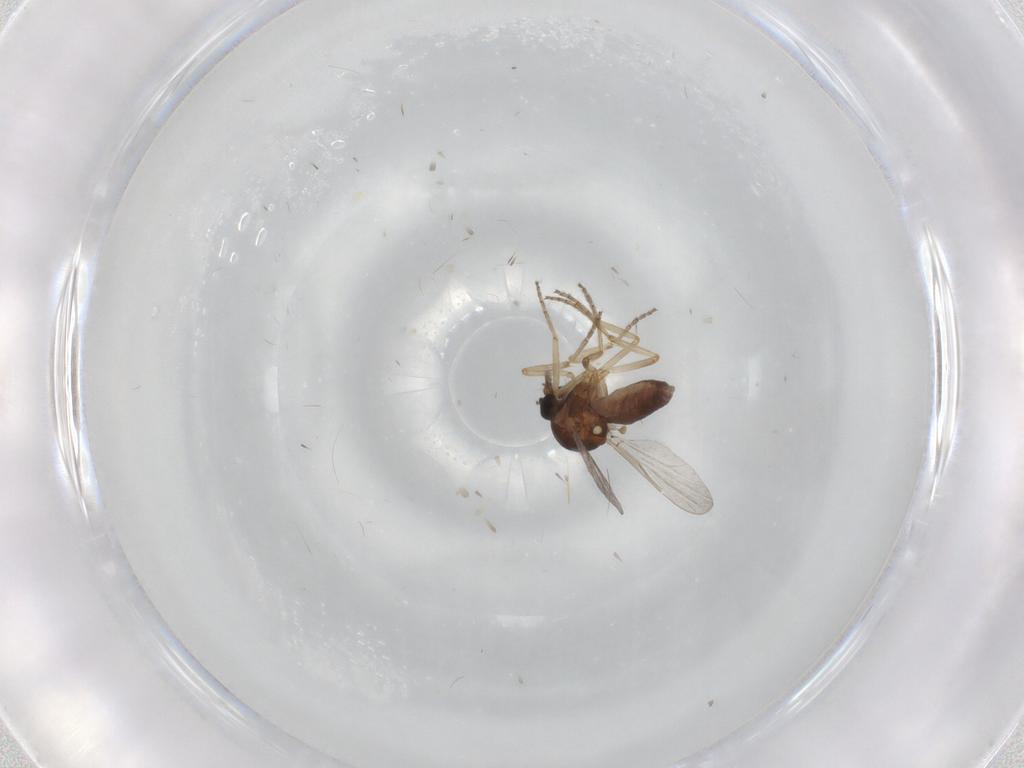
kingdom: Animalia
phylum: Arthropoda
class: Insecta
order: Diptera
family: Ceratopogonidae
